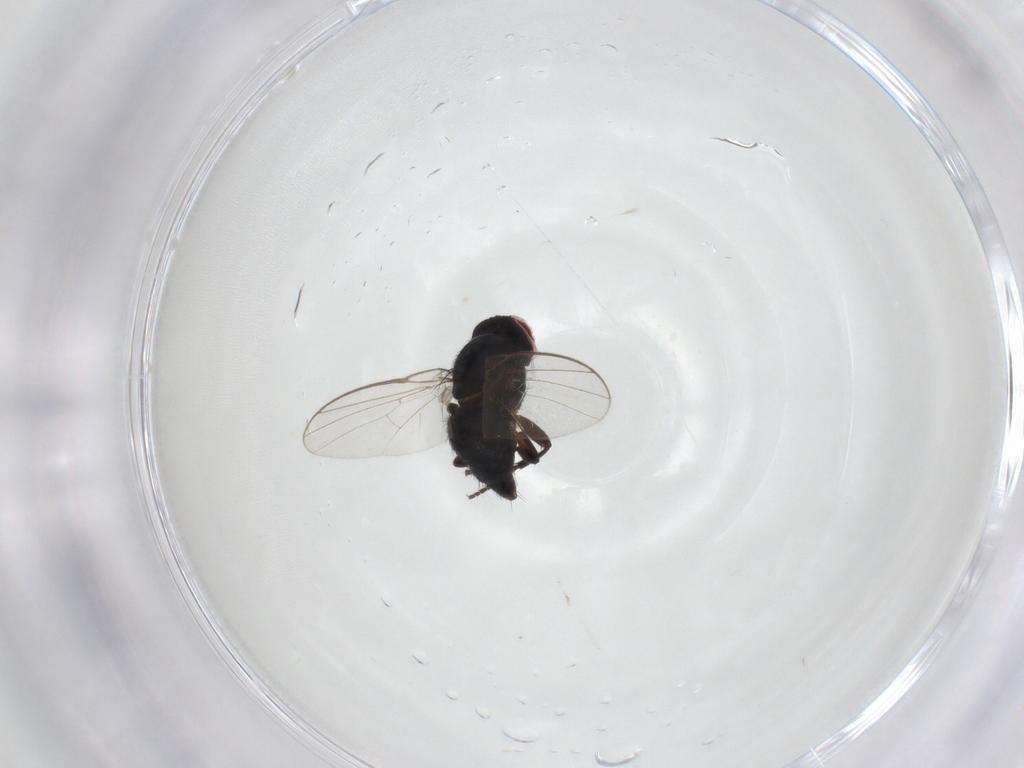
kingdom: Animalia
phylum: Arthropoda
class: Insecta
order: Diptera
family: Agromyzidae
